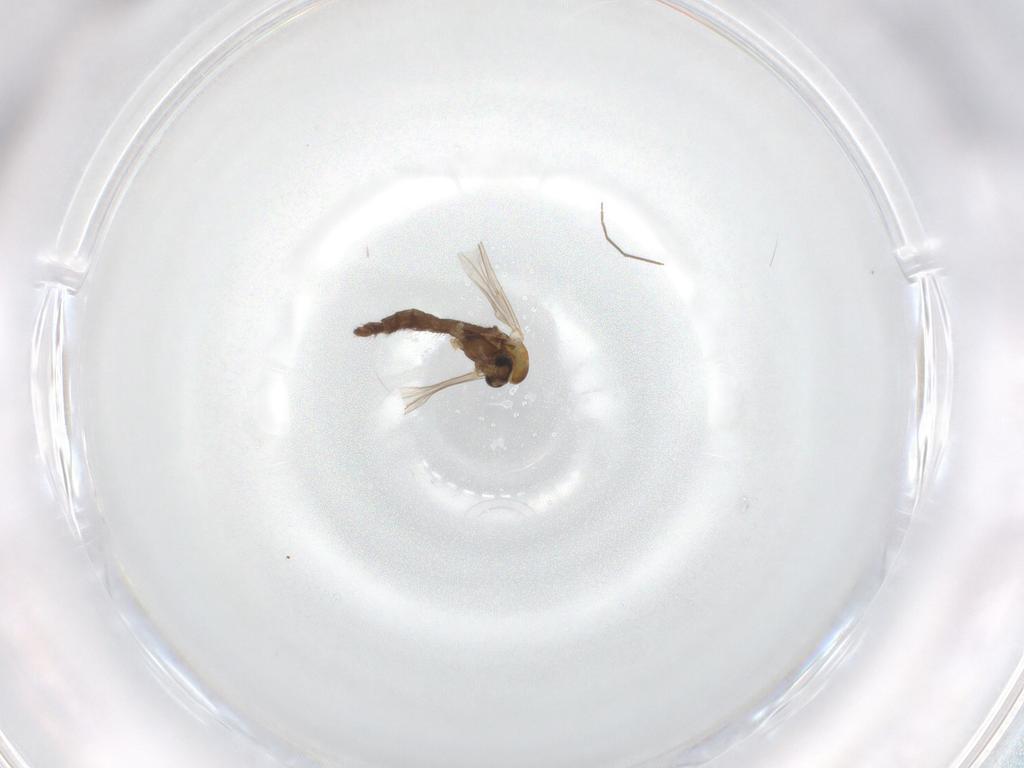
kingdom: Animalia
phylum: Arthropoda
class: Insecta
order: Diptera
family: Chironomidae
